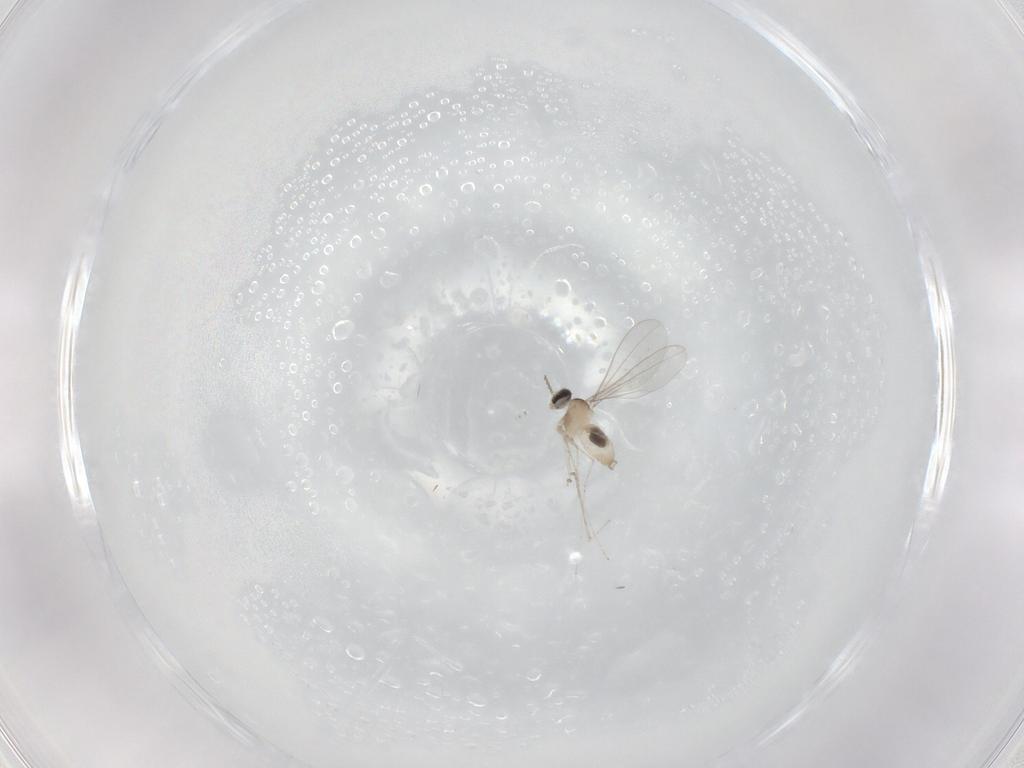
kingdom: Animalia
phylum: Arthropoda
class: Insecta
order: Diptera
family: Cecidomyiidae
